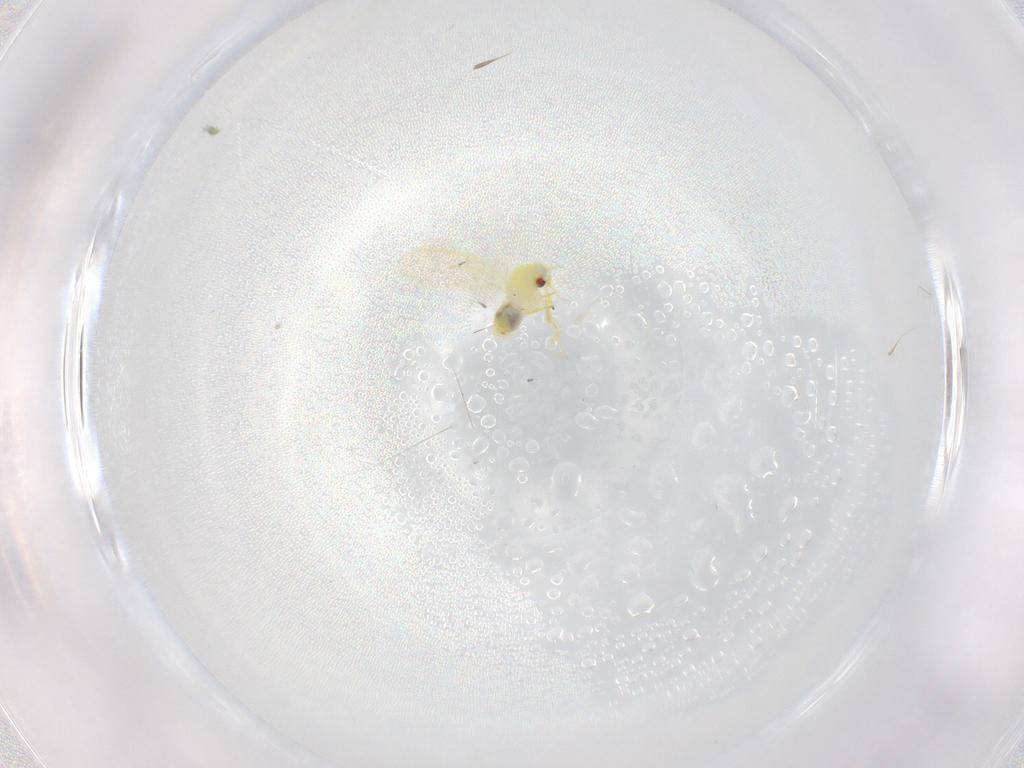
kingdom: Animalia
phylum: Arthropoda
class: Insecta
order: Hemiptera
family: Aleyrodidae
